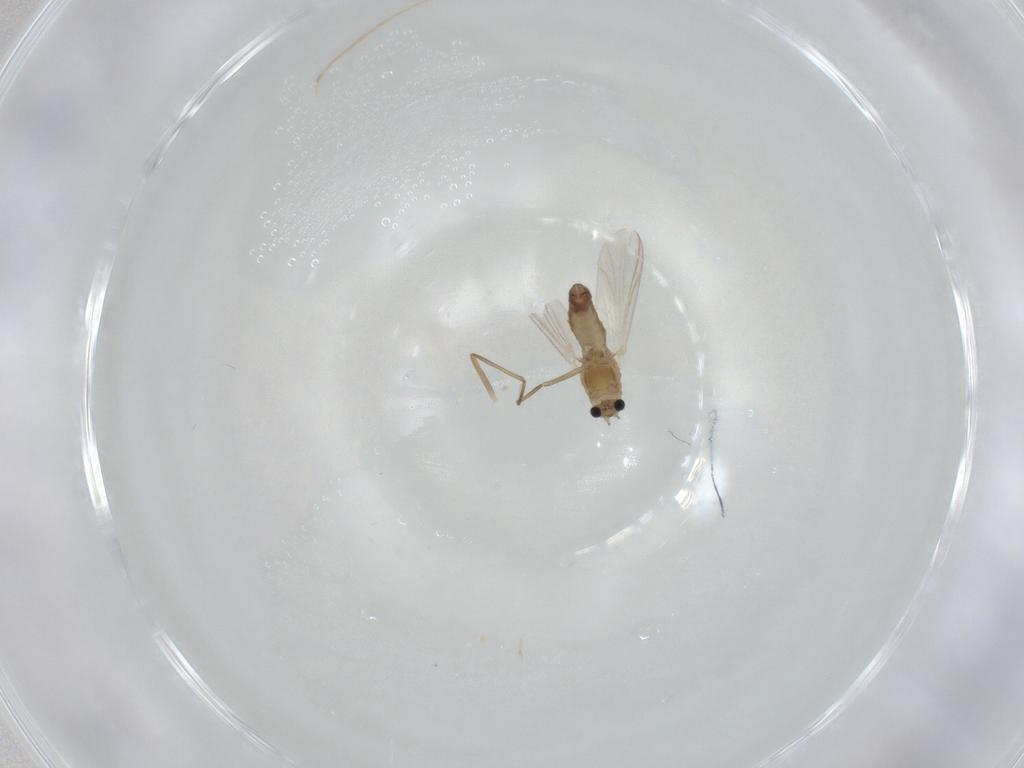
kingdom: Animalia
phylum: Arthropoda
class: Insecta
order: Diptera
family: Chironomidae
